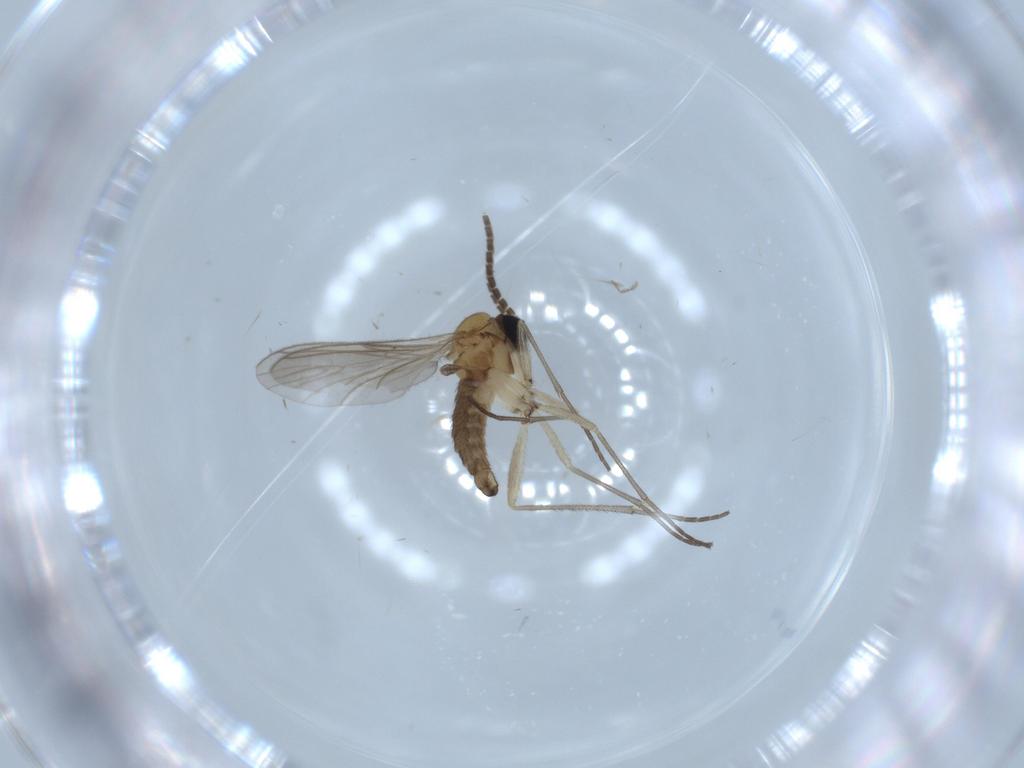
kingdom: Animalia
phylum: Arthropoda
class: Insecta
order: Diptera
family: Sciaridae
